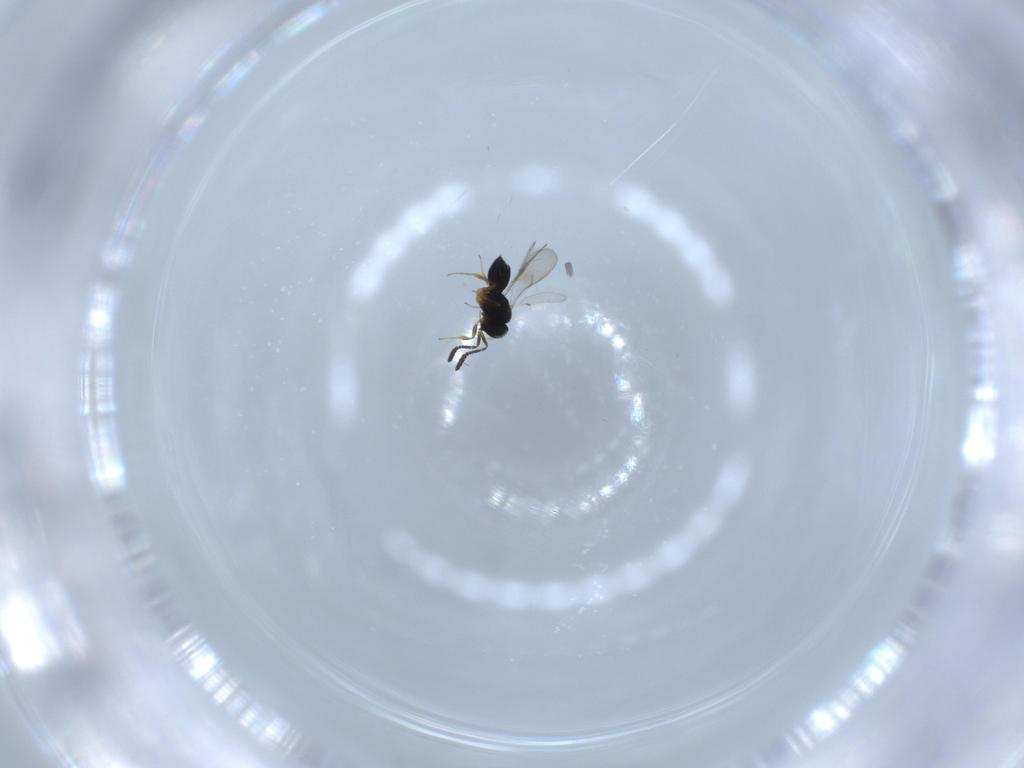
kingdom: Animalia
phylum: Arthropoda
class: Insecta
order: Hymenoptera
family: Scelionidae
